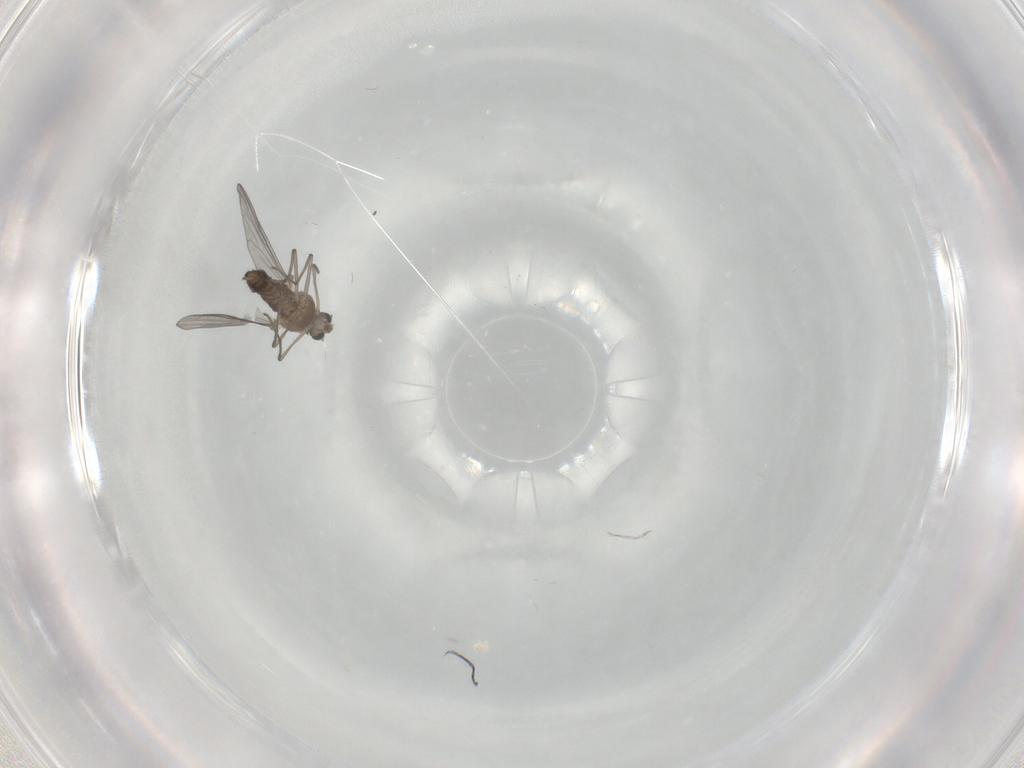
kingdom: Animalia
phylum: Arthropoda
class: Insecta
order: Diptera
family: Chironomidae
